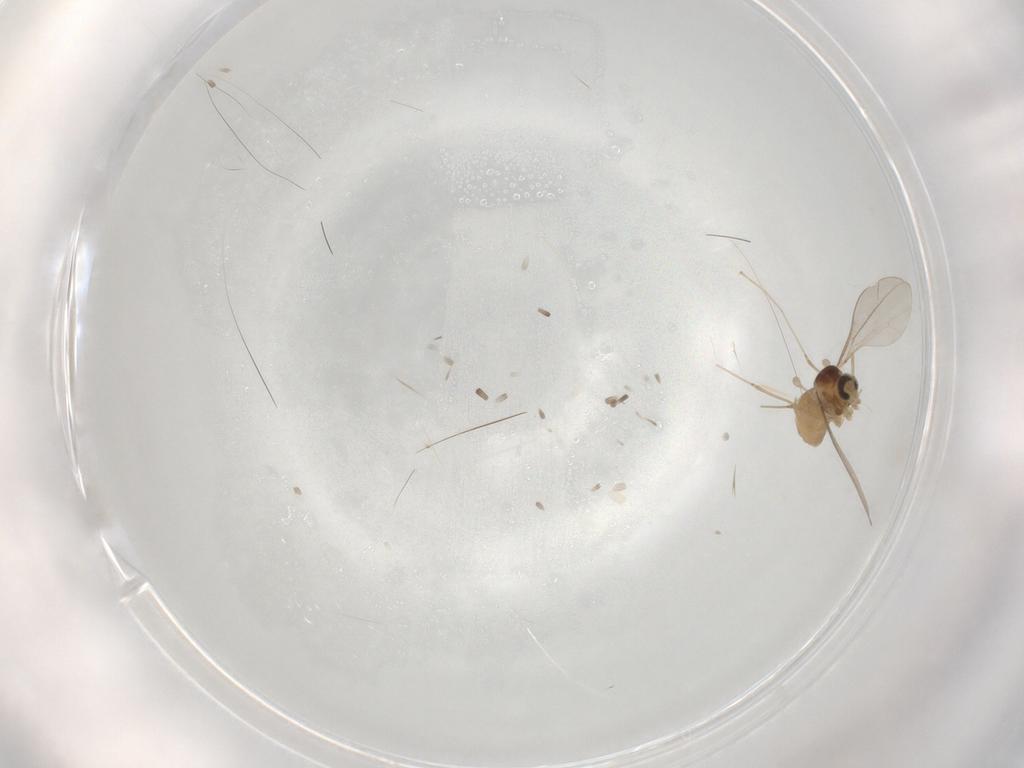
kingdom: Animalia
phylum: Arthropoda
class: Insecta
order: Diptera
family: Cecidomyiidae
